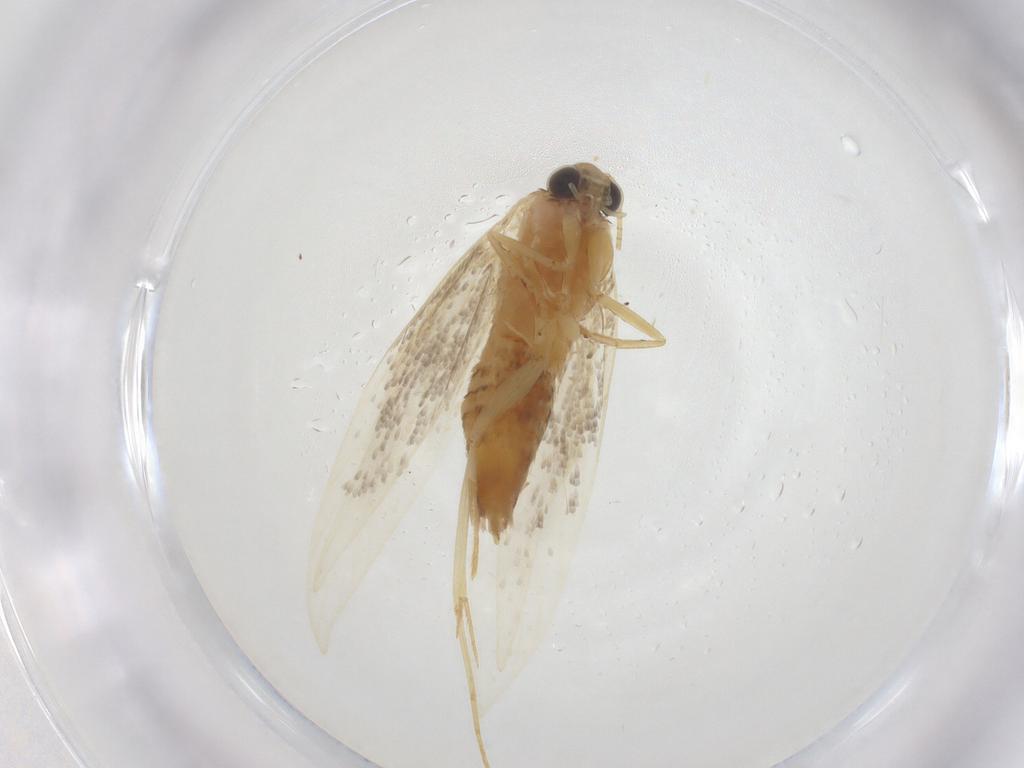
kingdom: Animalia
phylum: Arthropoda
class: Insecta
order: Lepidoptera
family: Tineidae
